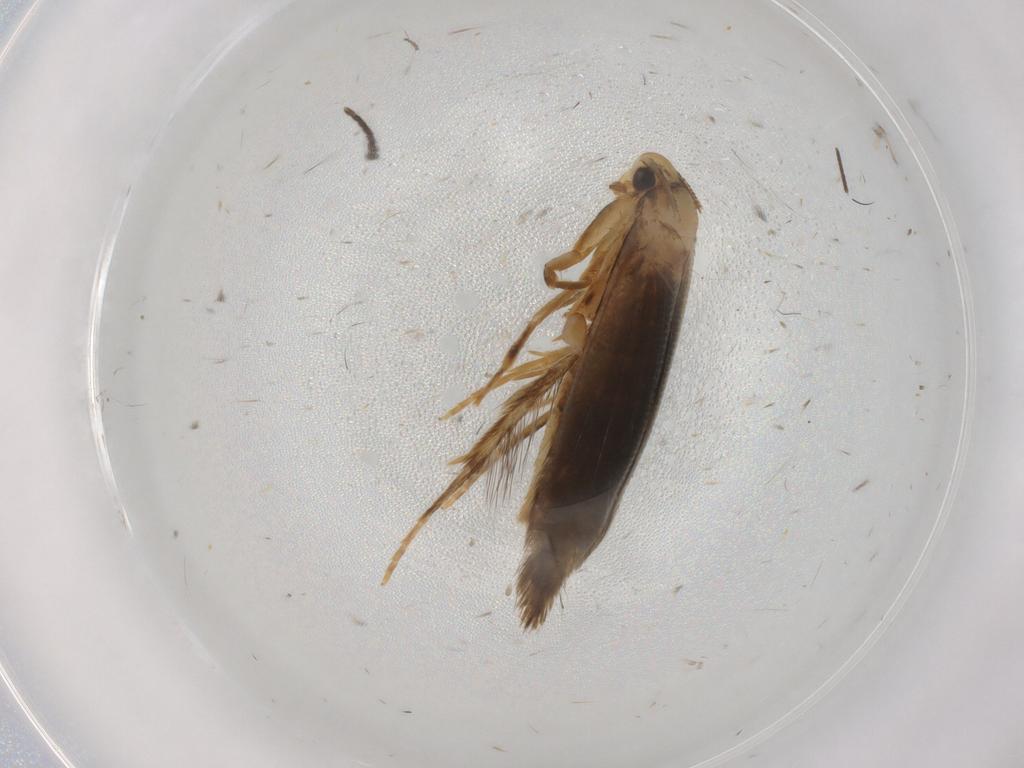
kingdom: Animalia
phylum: Arthropoda
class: Insecta
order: Lepidoptera
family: Tineidae
